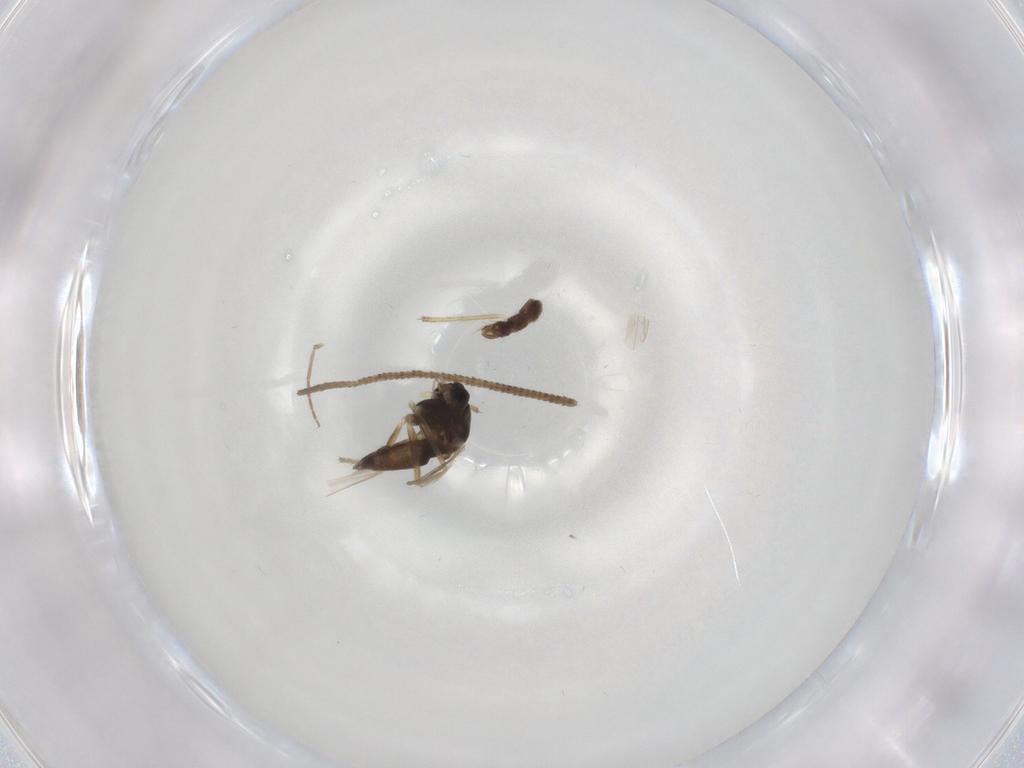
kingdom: Animalia
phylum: Arthropoda
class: Insecta
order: Diptera
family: Chironomidae
